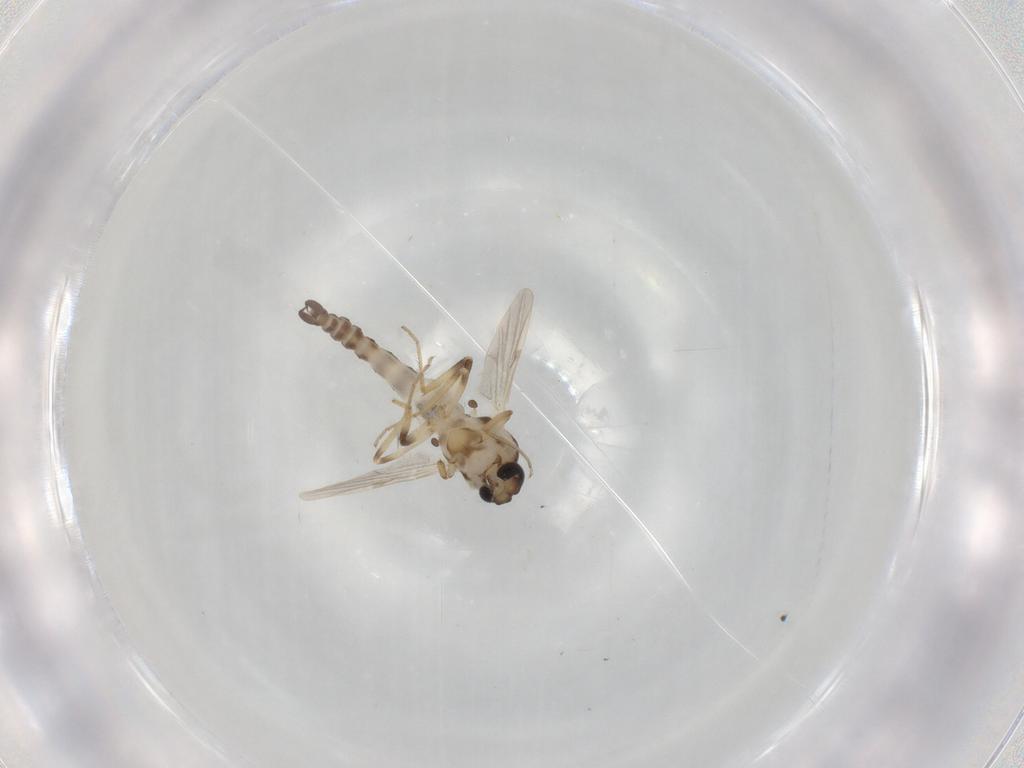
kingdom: Animalia
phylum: Arthropoda
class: Insecta
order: Diptera
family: Ceratopogonidae
